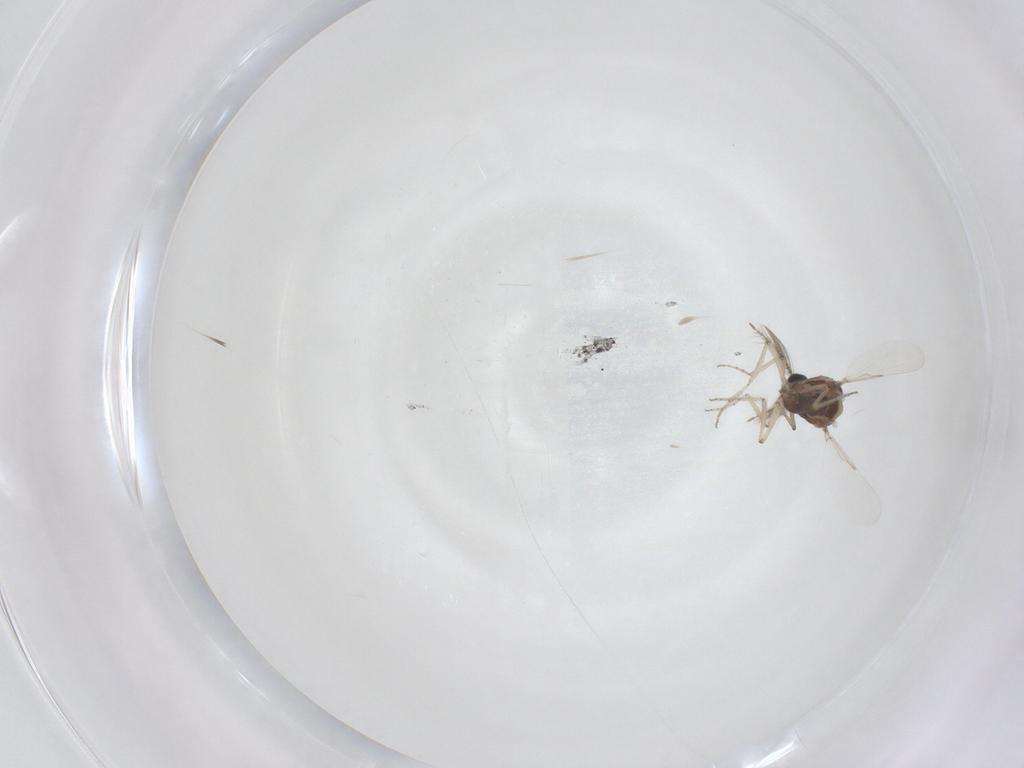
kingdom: Animalia
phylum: Arthropoda
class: Insecta
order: Diptera
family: Ceratopogonidae
